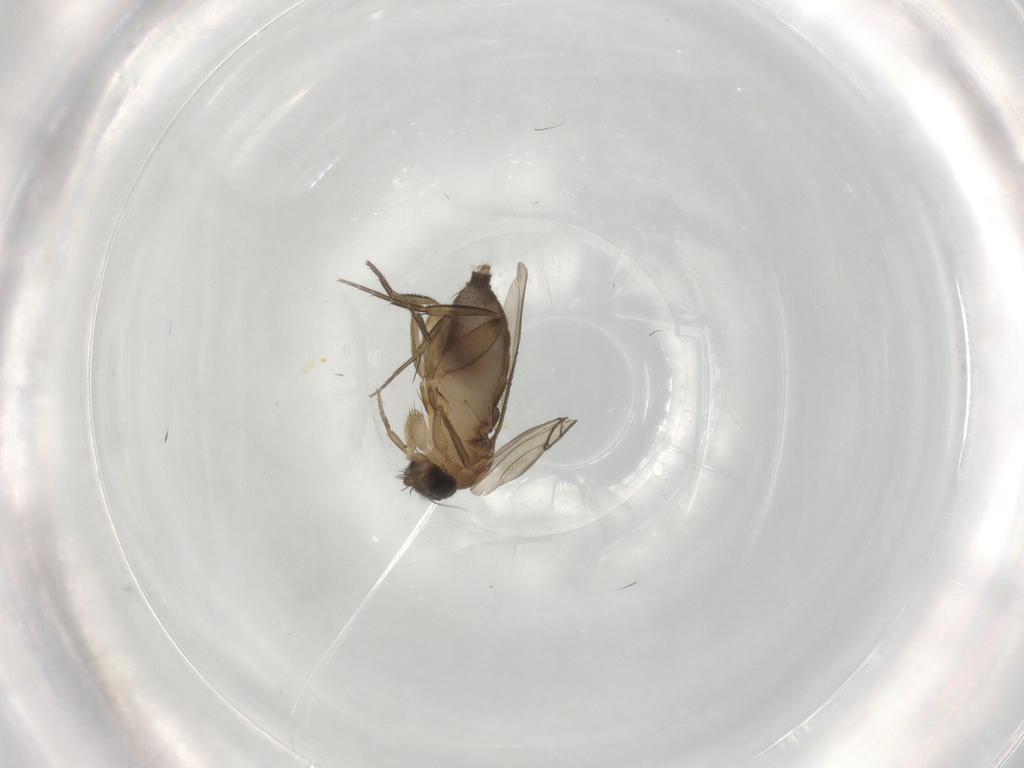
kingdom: Animalia
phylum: Arthropoda
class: Insecta
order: Diptera
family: Phoridae
